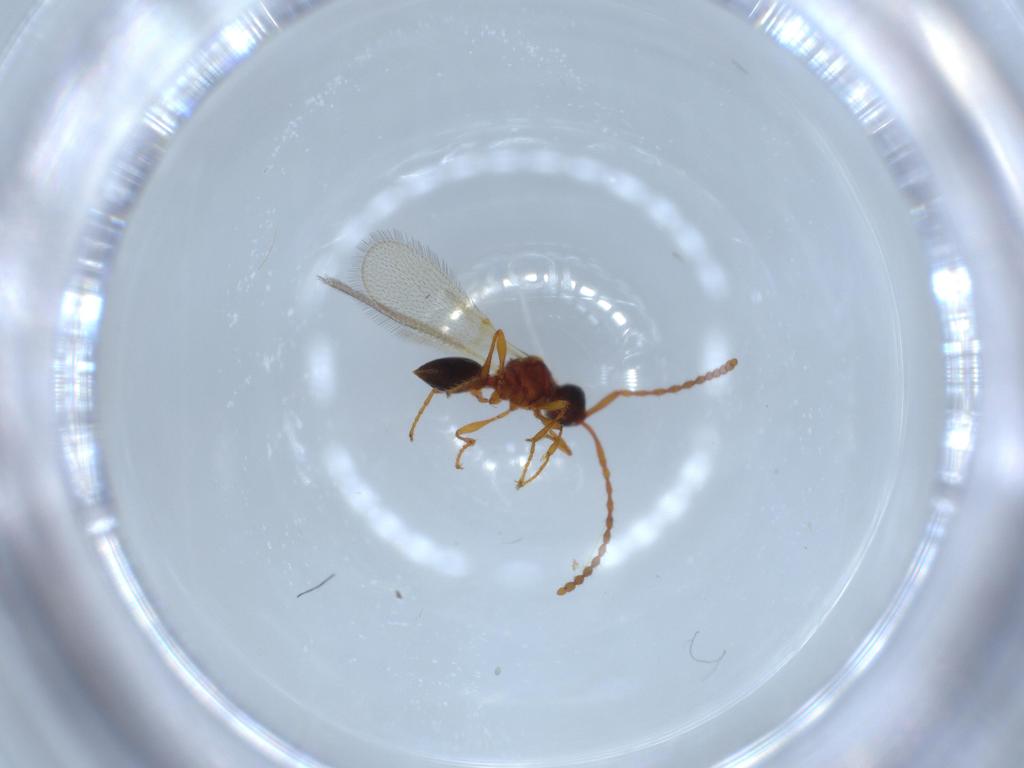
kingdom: Animalia
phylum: Arthropoda
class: Insecta
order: Hymenoptera
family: Diapriidae
